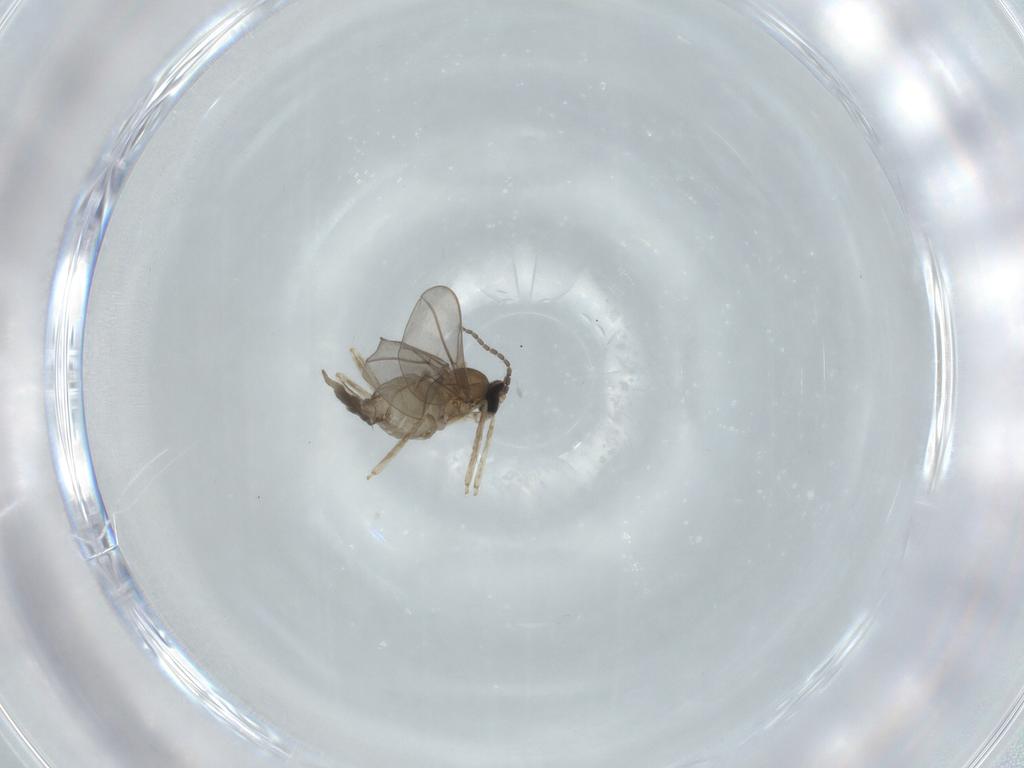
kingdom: Animalia
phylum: Arthropoda
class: Insecta
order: Diptera
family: Cecidomyiidae
